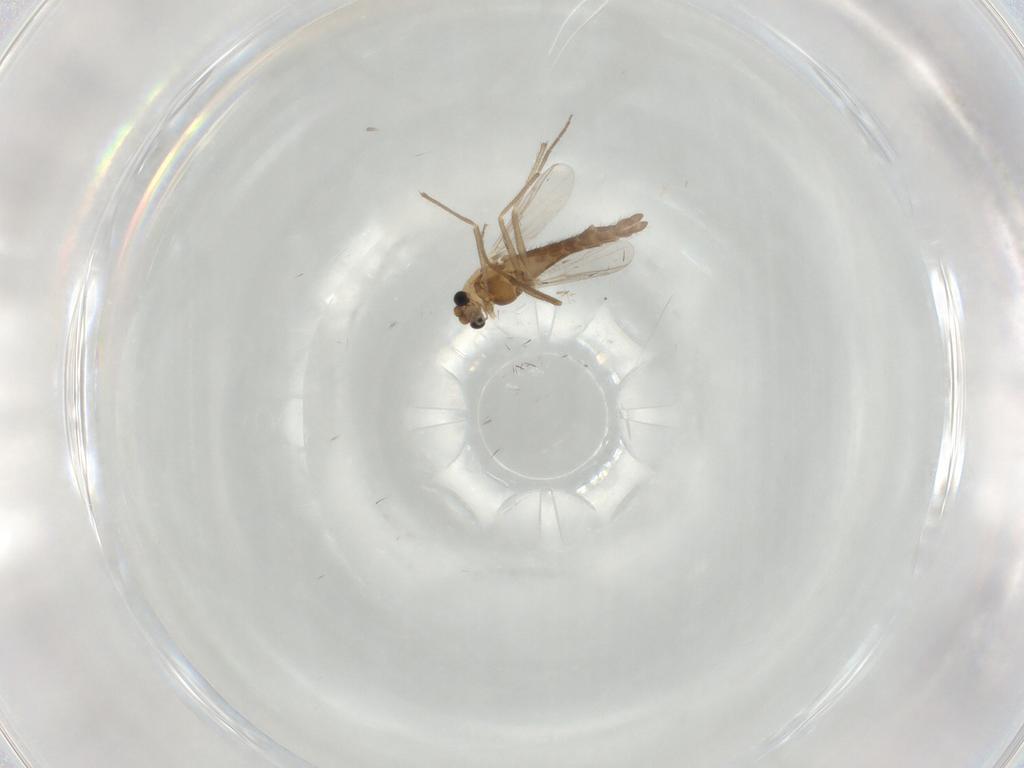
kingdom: Animalia
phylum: Arthropoda
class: Insecta
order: Diptera
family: Chironomidae
